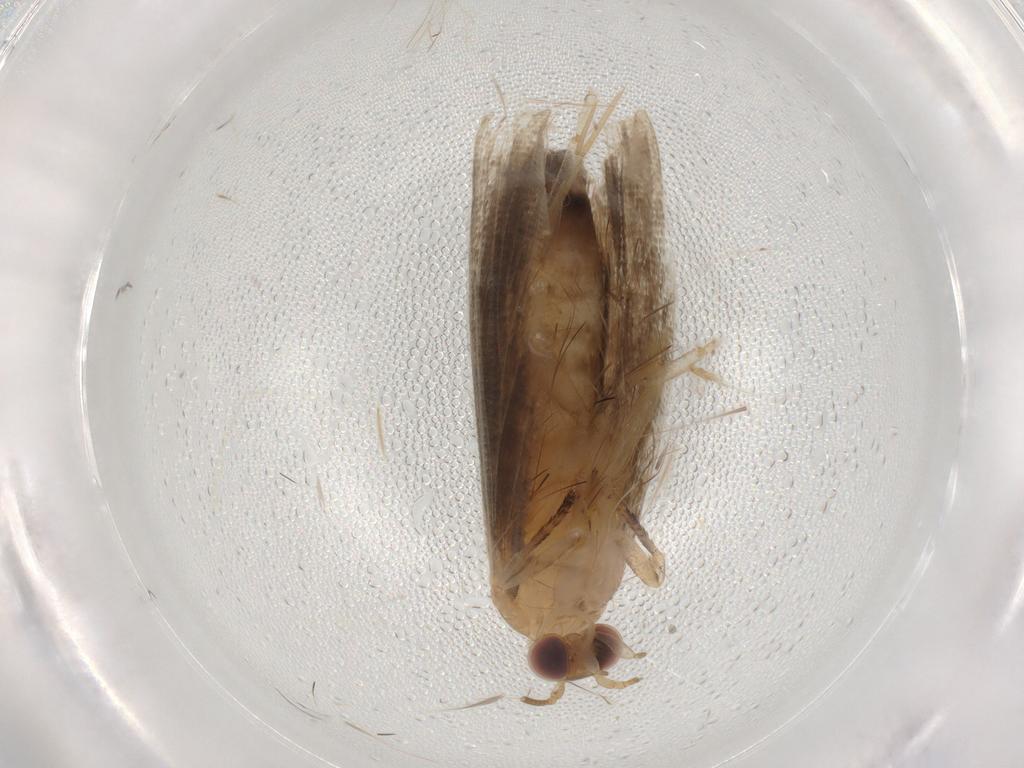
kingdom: Animalia
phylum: Arthropoda
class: Insecta
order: Lepidoptera
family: Tortricidae
